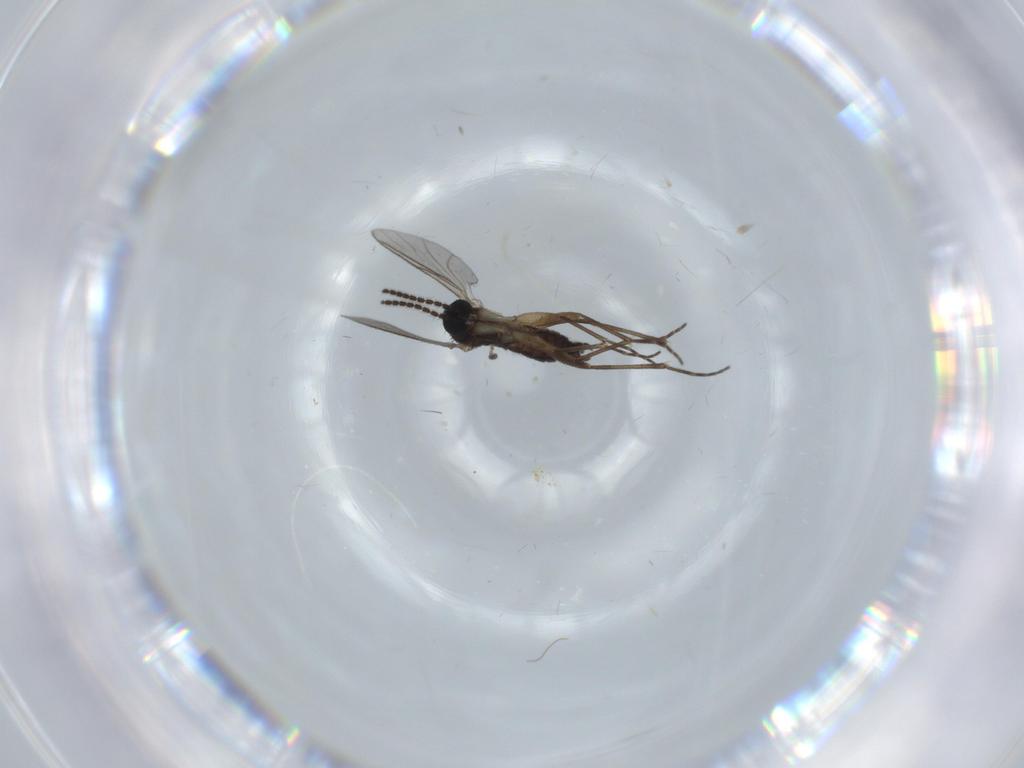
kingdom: Animalia
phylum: Arthropoda
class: Insecta
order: Diptera
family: Sciaridae
